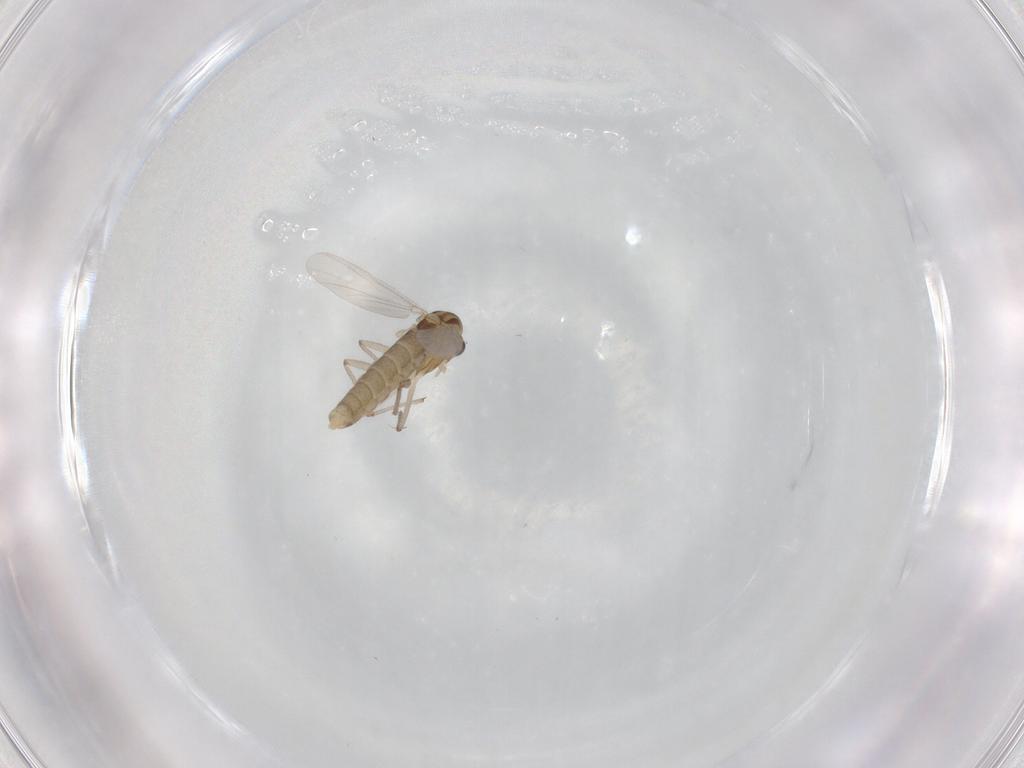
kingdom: Animalia
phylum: Arthropoda
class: Insecta
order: Diptera
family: Chironomidae
